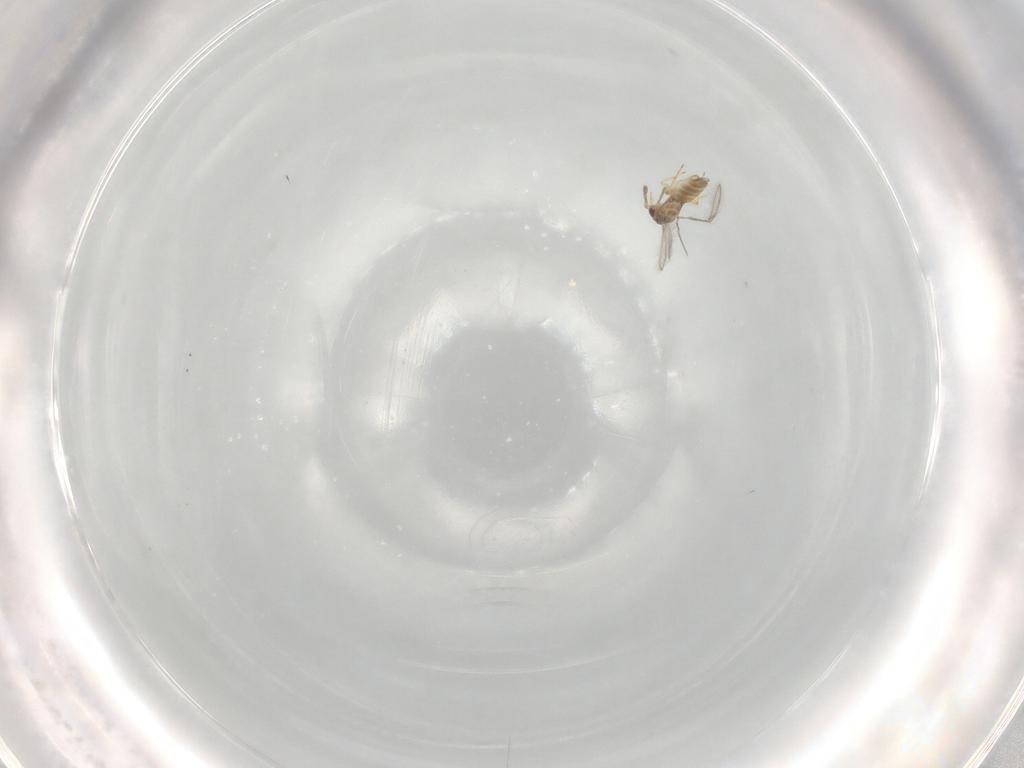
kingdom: Animalia
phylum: Arthropoda
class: Insecta
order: Hymenoptera
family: Mymaridae
